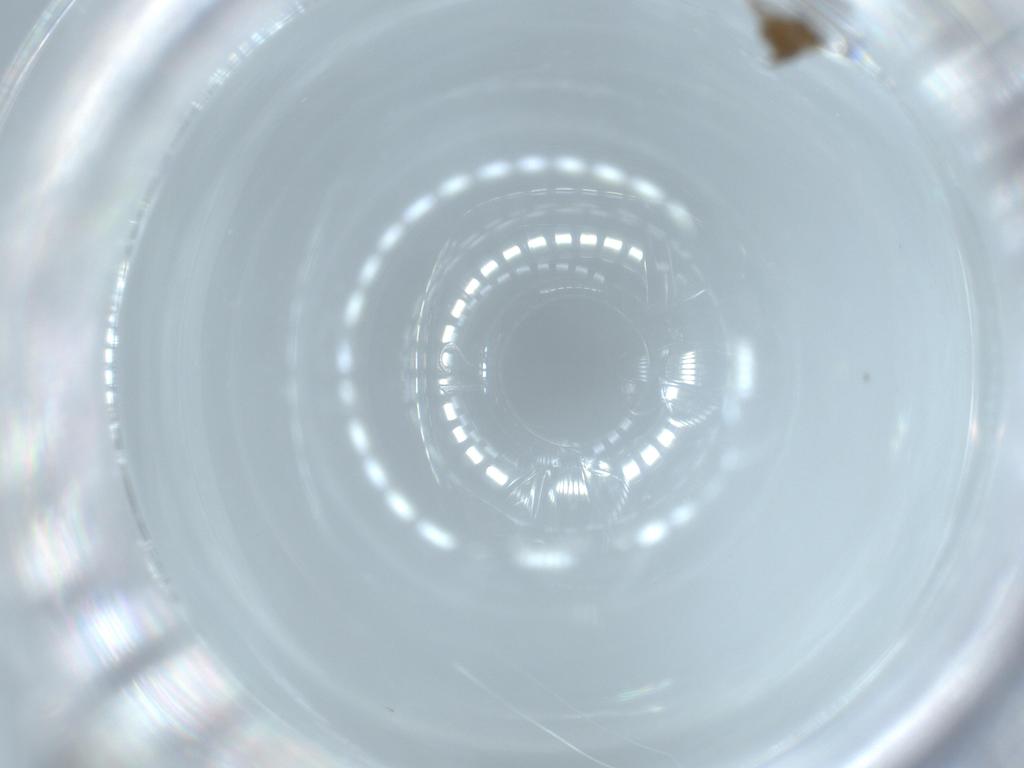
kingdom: Animalia
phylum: Arthropoda
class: Insecta
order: Diptera
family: Chironomidae
